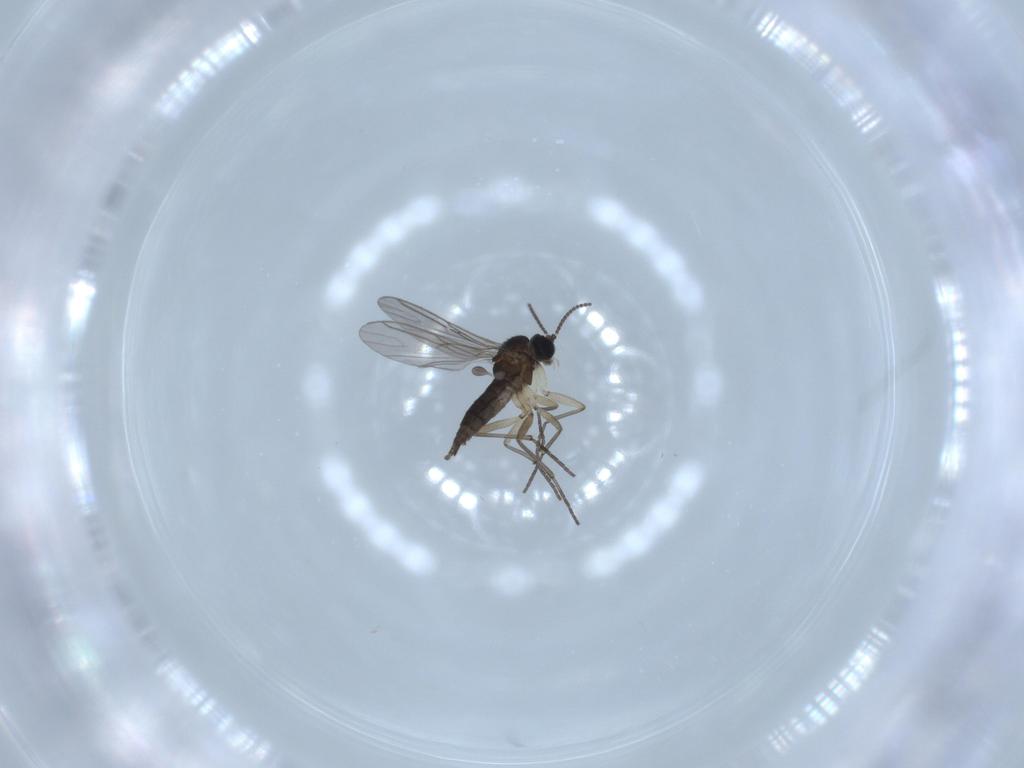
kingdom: Animalia
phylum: Arthropoda
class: Insecta
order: Diptera
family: Sciaridae
